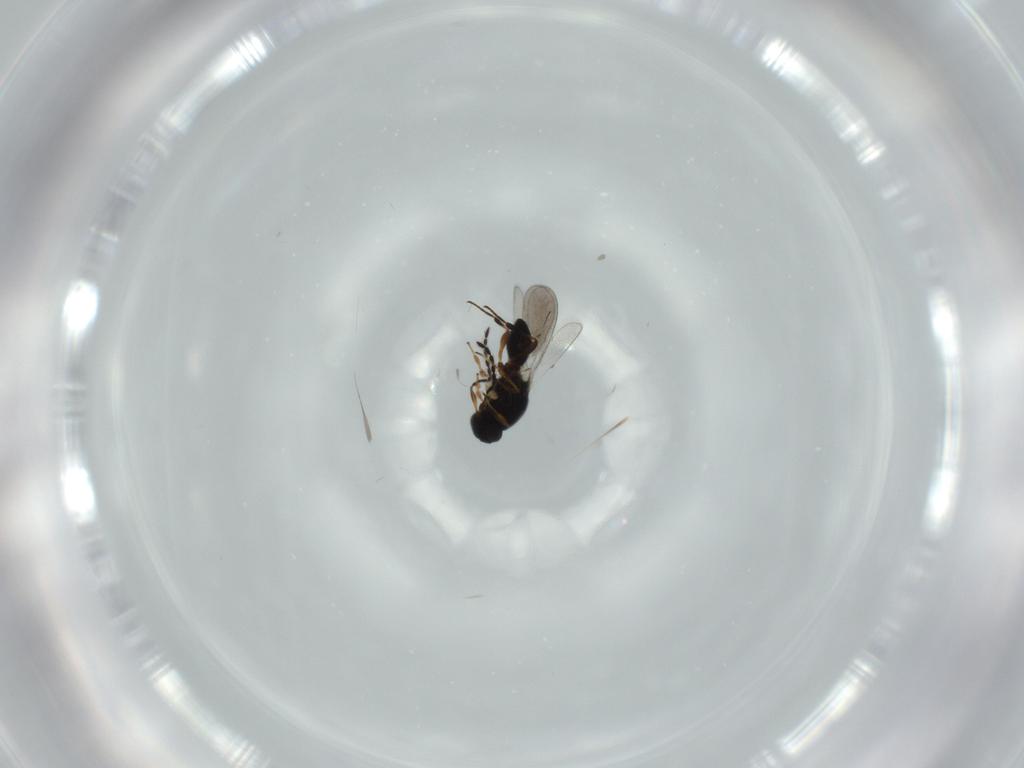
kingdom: Animalia
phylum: Arthropoda
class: Insecta
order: Hymenoptera
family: Platygastridae
